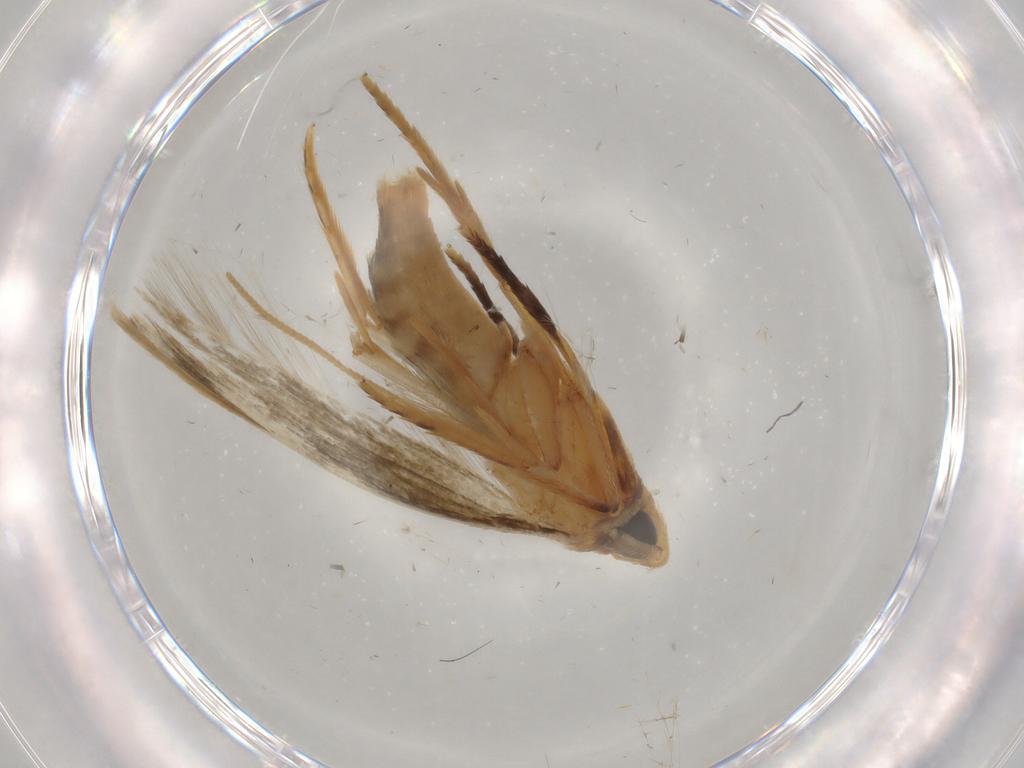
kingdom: Animalia
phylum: Arthropoda
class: Insecta
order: Lepidoptera
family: Tineidae
